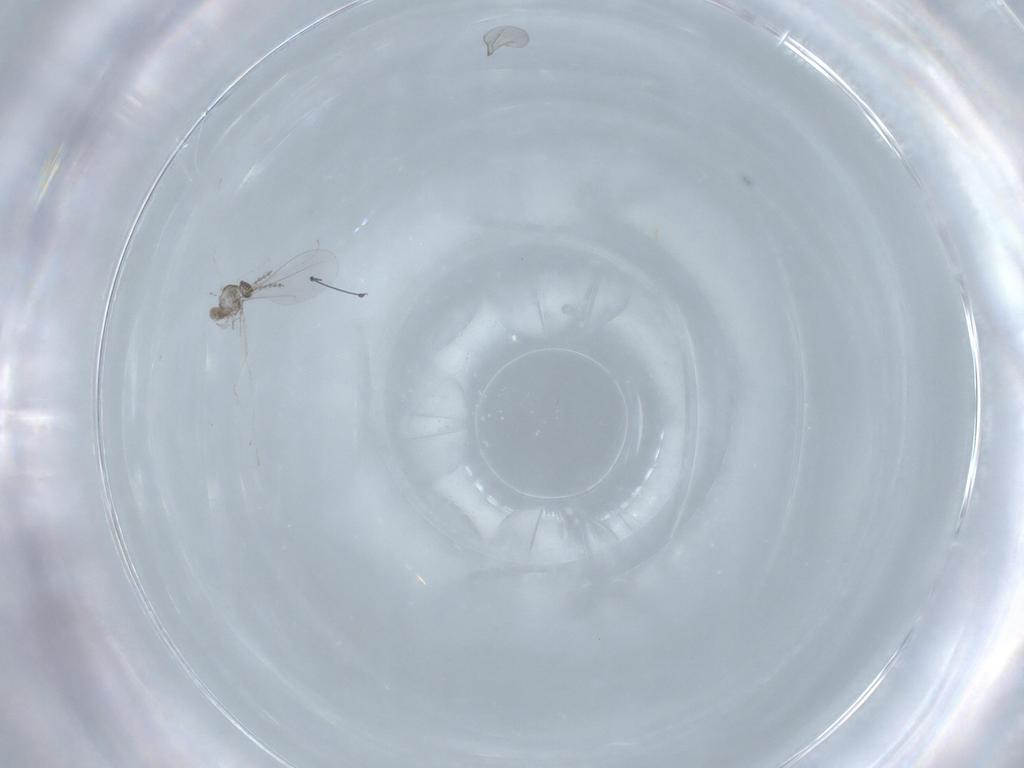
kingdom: Animalia
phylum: Arthropoda
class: Insecta
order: Diptera
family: Cecidomyiidae
